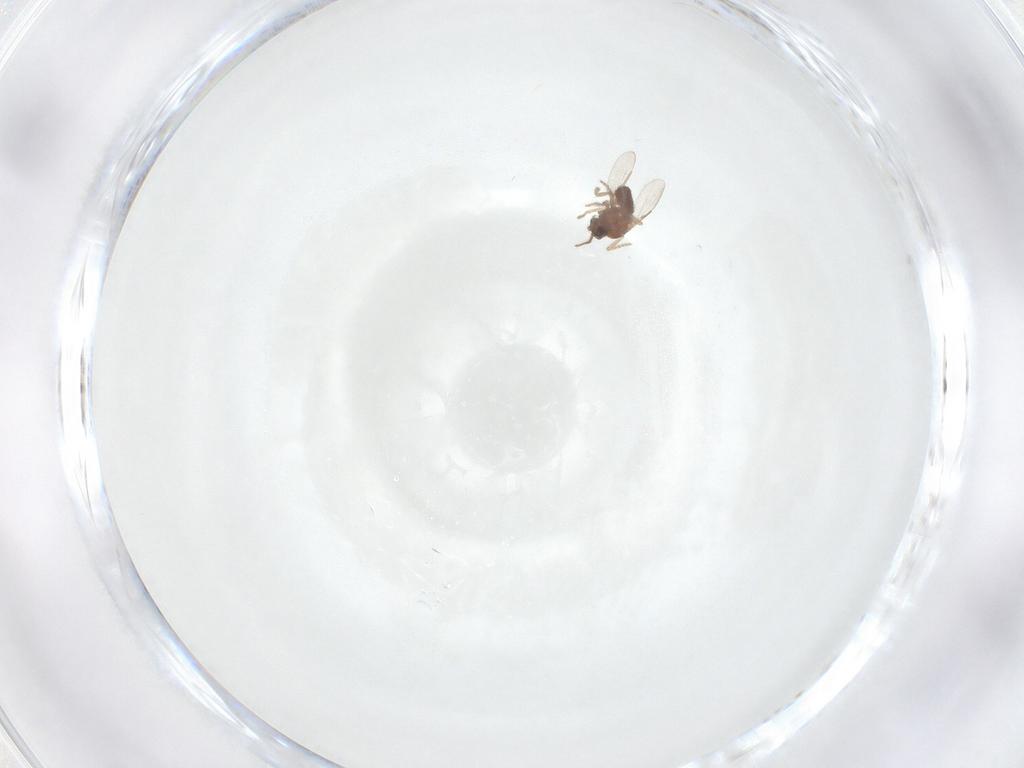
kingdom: Animalia
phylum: Arthropoda
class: Insecta
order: Diptera
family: Ceratopogonidae
